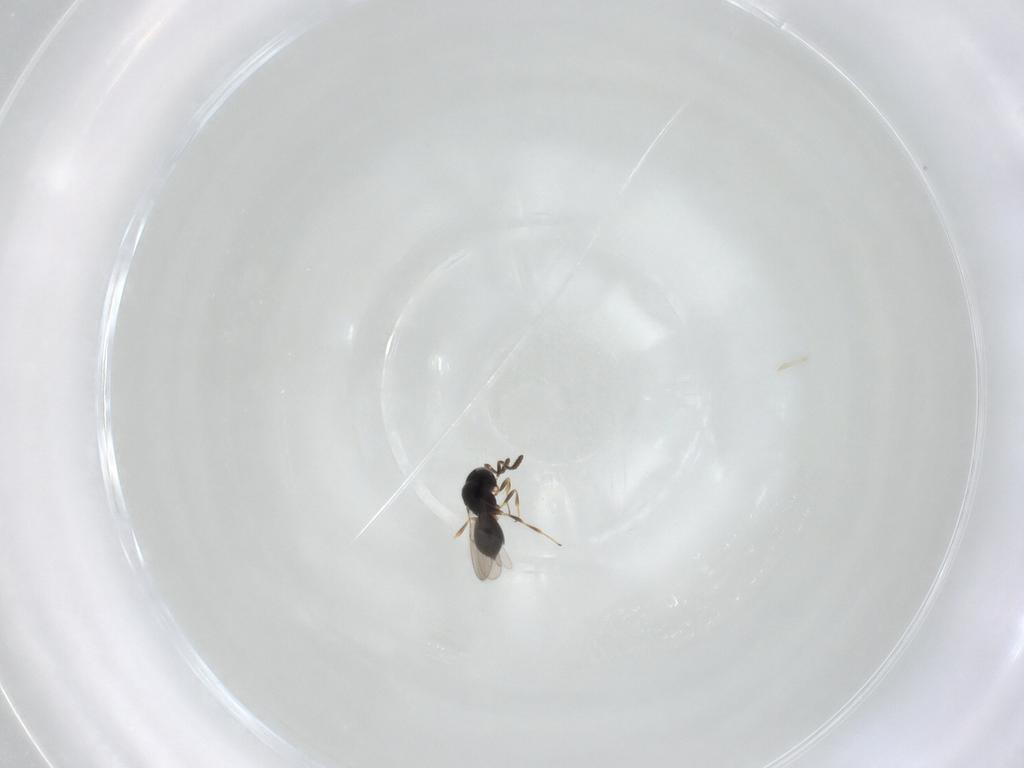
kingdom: Animalia
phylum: Arthropoda
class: Insecta
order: Hymenoptera
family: Scelionidae
